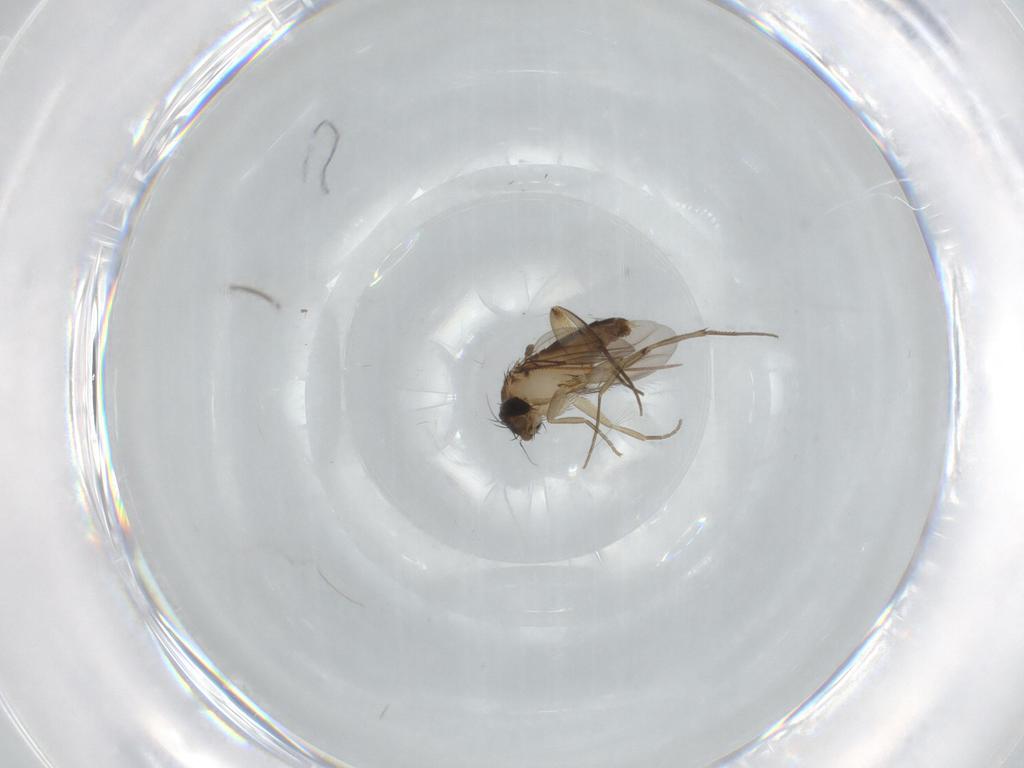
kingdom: Animalia
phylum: Arthropoda
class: Insecta
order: Diptera
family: Phoridae
